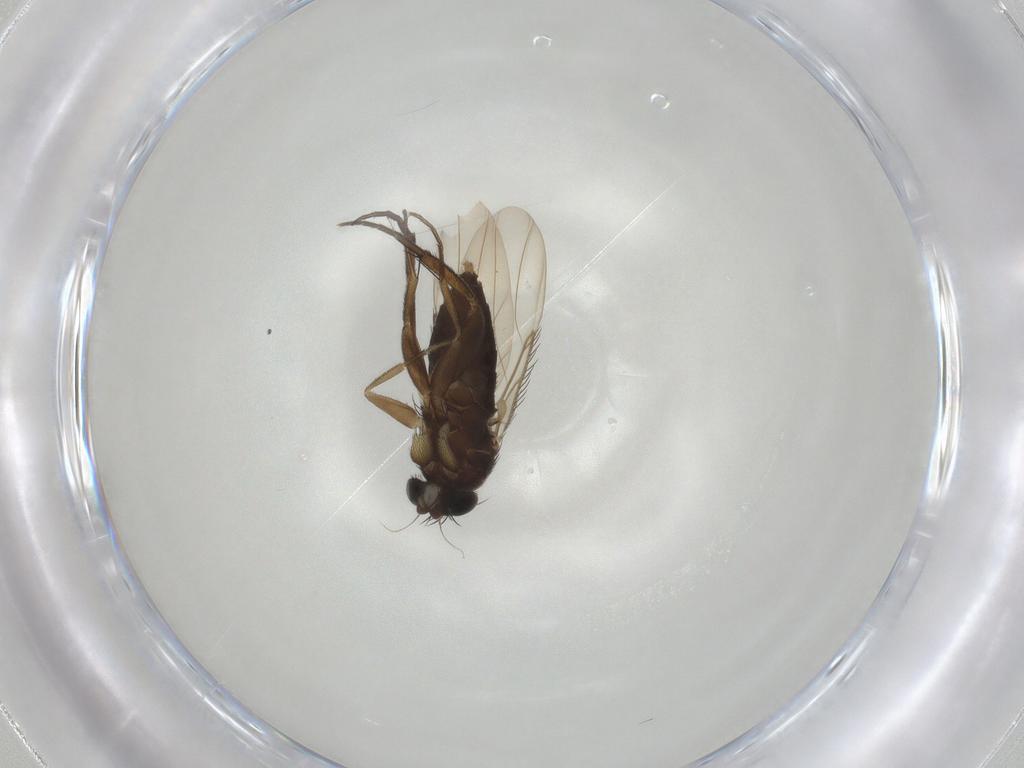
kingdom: Animalia
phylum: Arthropoda
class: Insecta
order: Diptera
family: Phoridae
